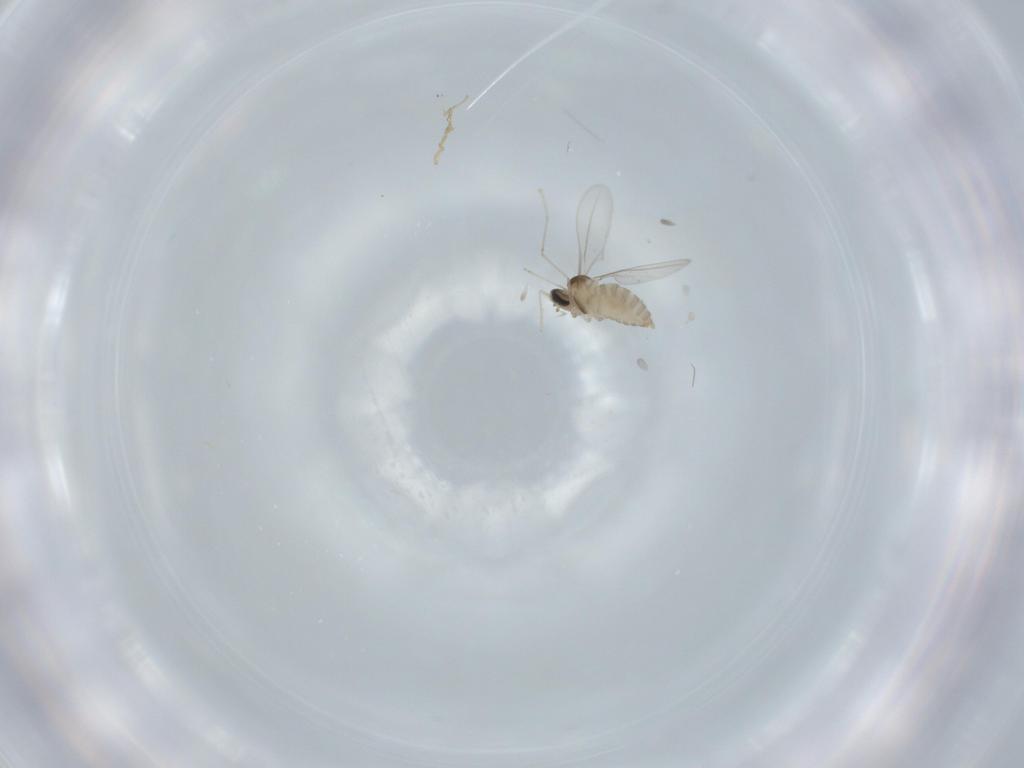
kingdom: Animalia
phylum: Arthropoda
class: Insecta
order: Diptera
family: Cecidomyiidae
